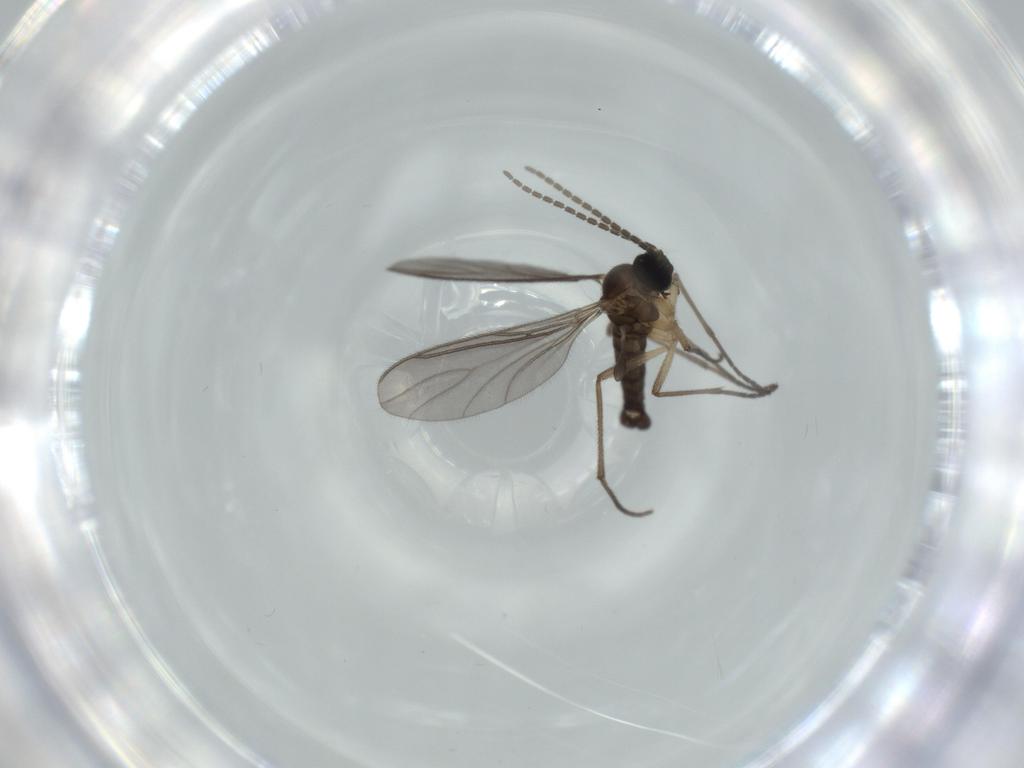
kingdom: Animalia
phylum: Arthropoda
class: Insecta
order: Diptera
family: Sciaridae
